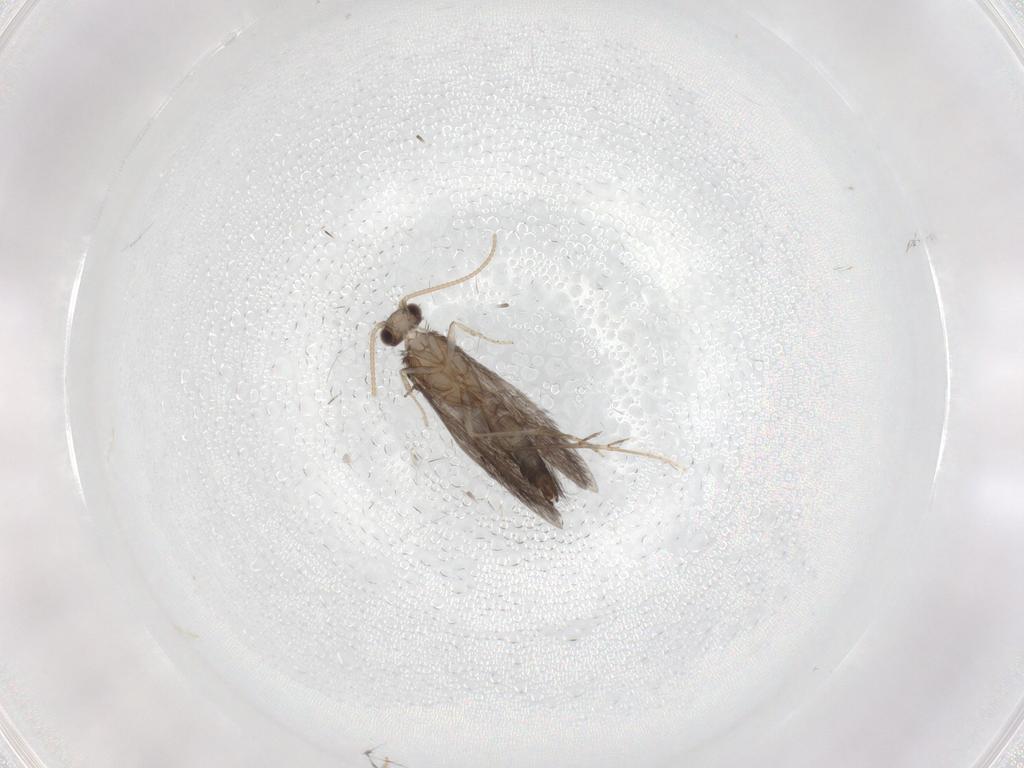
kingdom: Animalia
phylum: Arthropoda
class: Insecta
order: Trichoptera
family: Hydroptilidae
